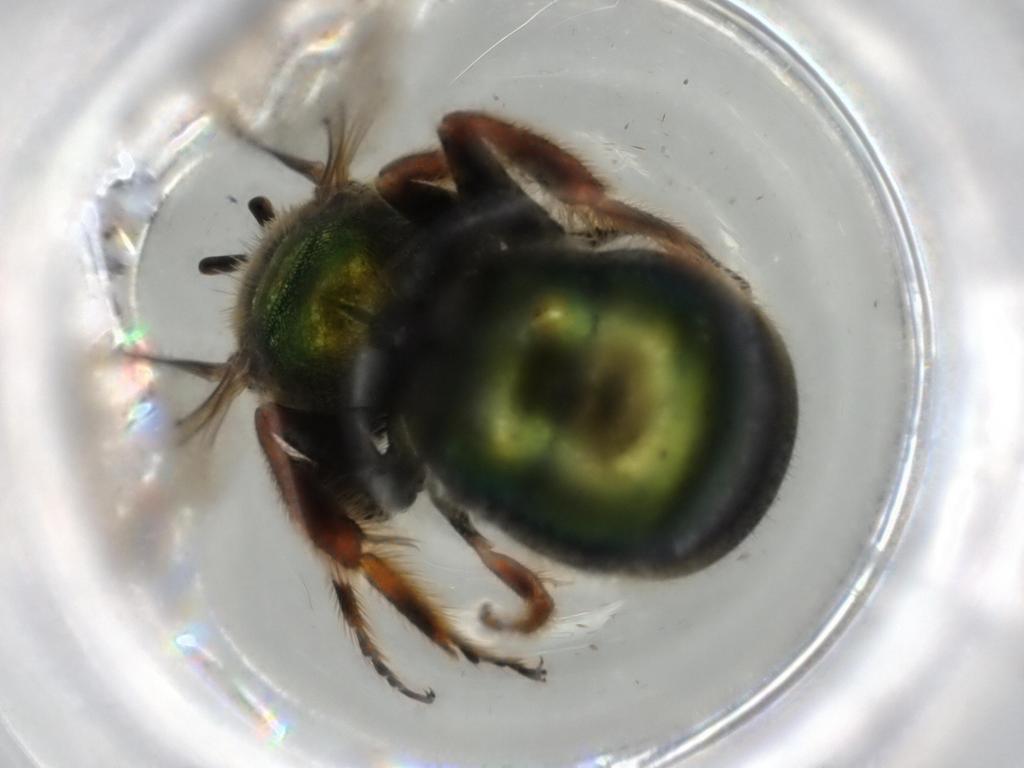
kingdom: Animalia
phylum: Arthropoda
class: Insecta
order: Hymenoptera
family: Halictidae
